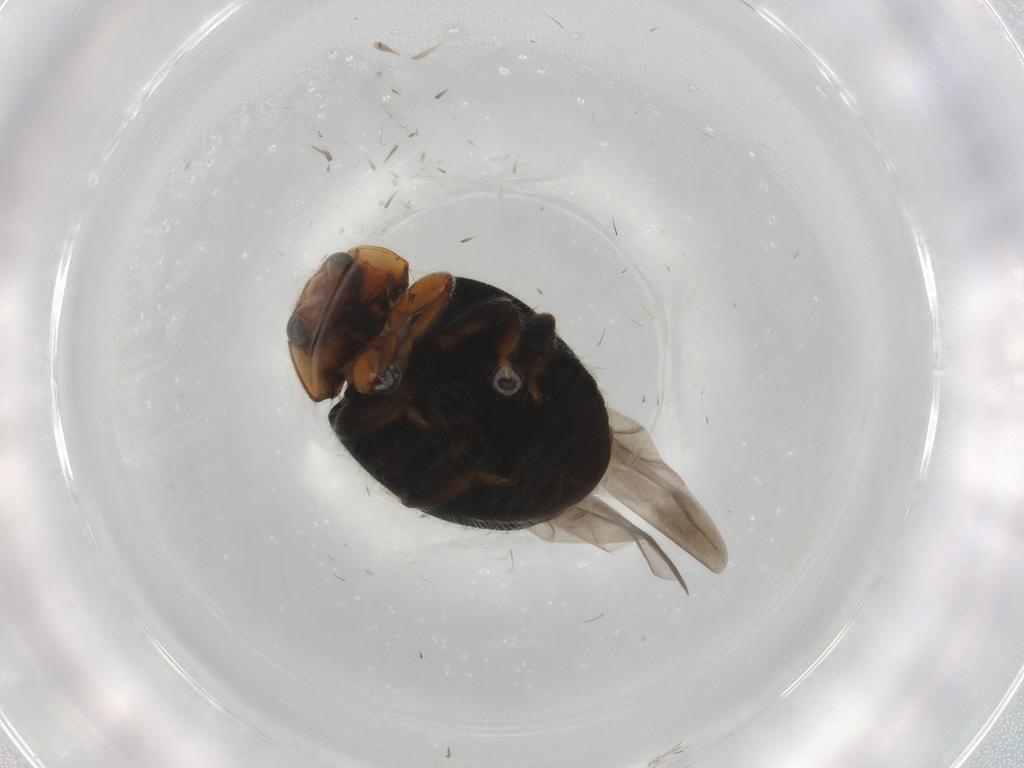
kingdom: Animalia
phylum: Arthropoda
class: Insecta
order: Coleoptera
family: Coccinellidae
